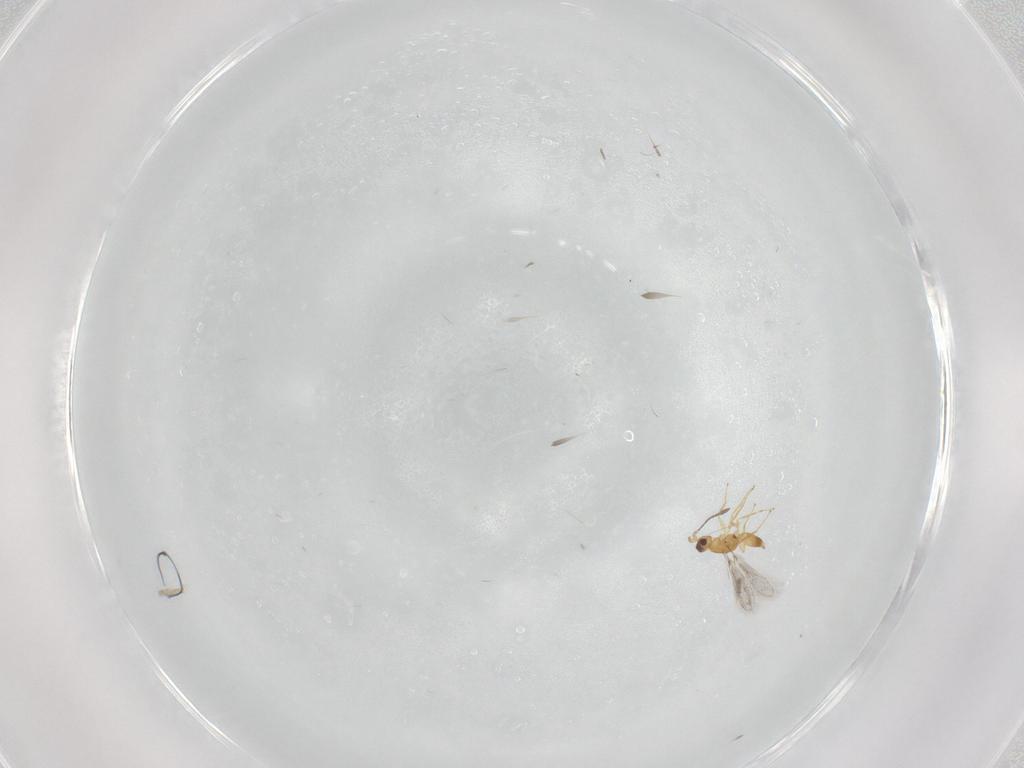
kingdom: Animalia
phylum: Arthropoda
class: Insecta
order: Hymenoptera
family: Mymaridae
